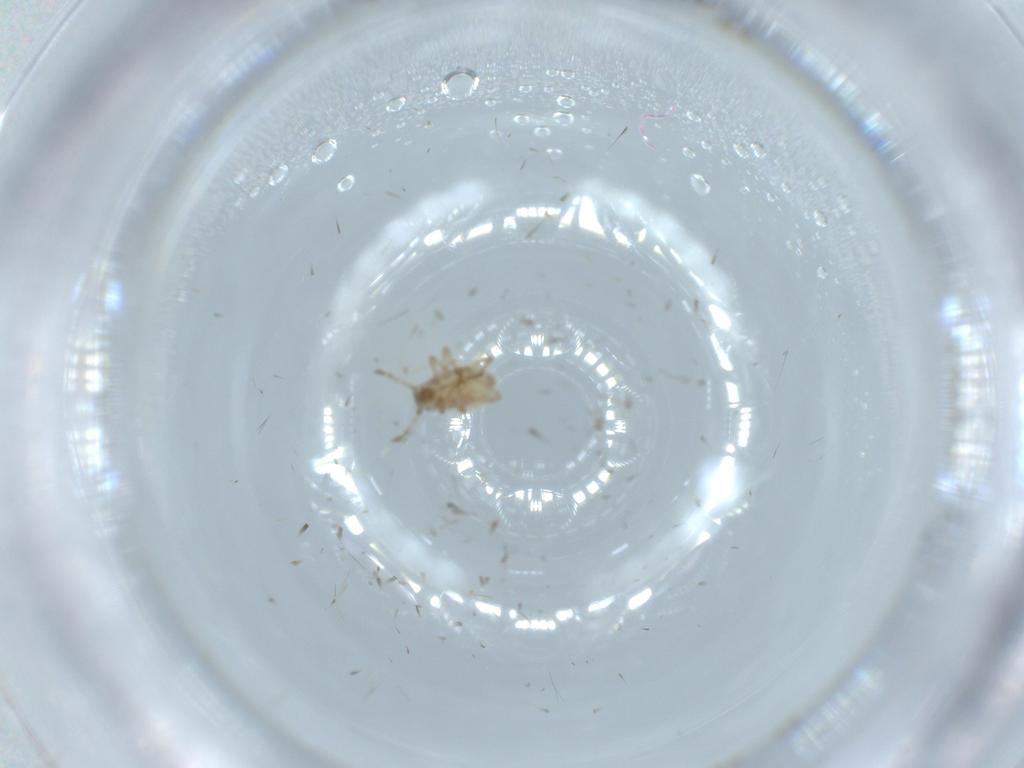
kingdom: Animalia
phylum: Arthropoda
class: Insecta
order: Hemiptera
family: Aphididae
